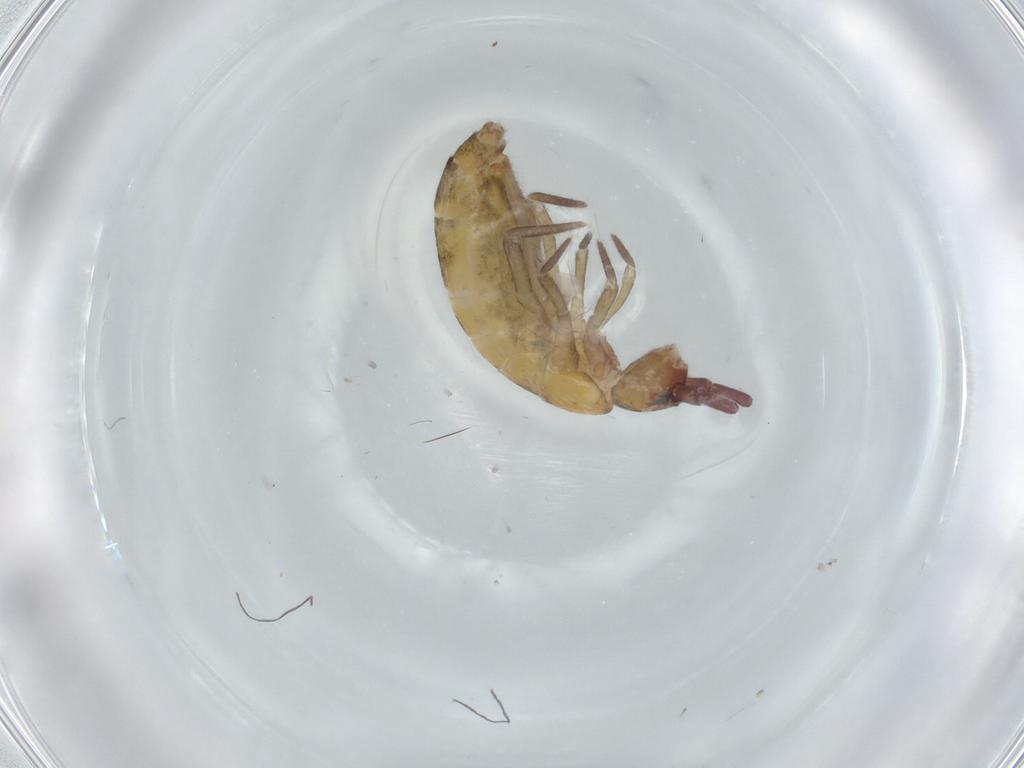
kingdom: Animalia
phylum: Arthropoda
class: Collembola
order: Entomobryomorpha
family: Tomoceridae
